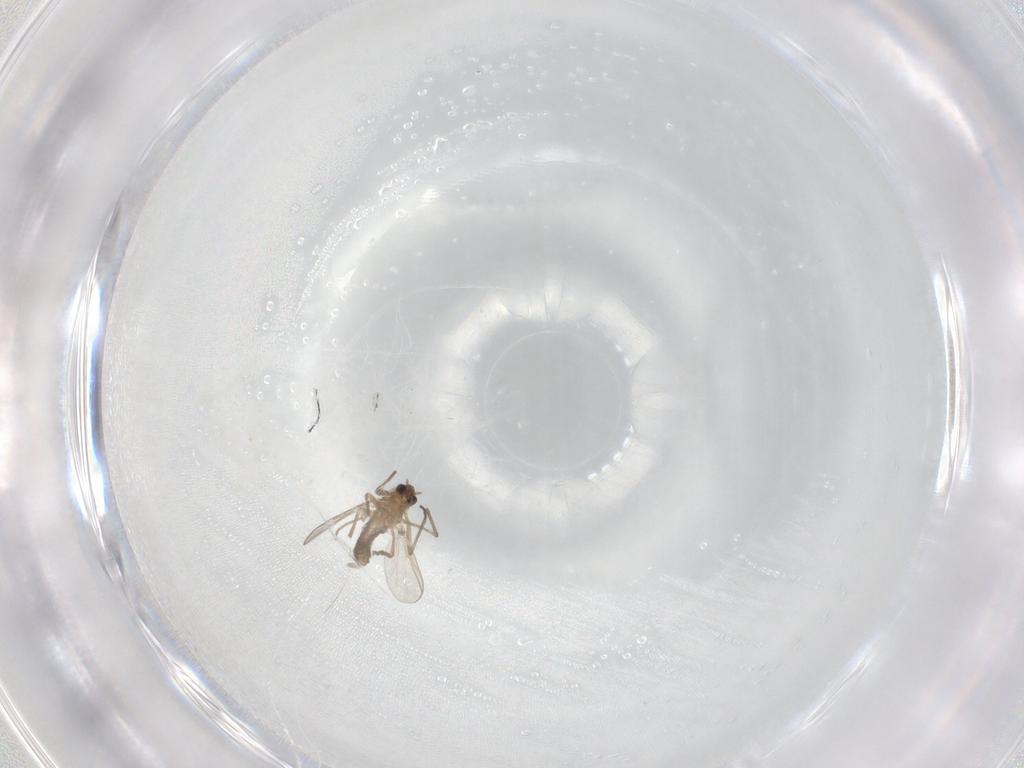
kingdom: Animalia
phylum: Arthropoda
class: Insecta
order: Diptera
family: Cecidomyiidae
